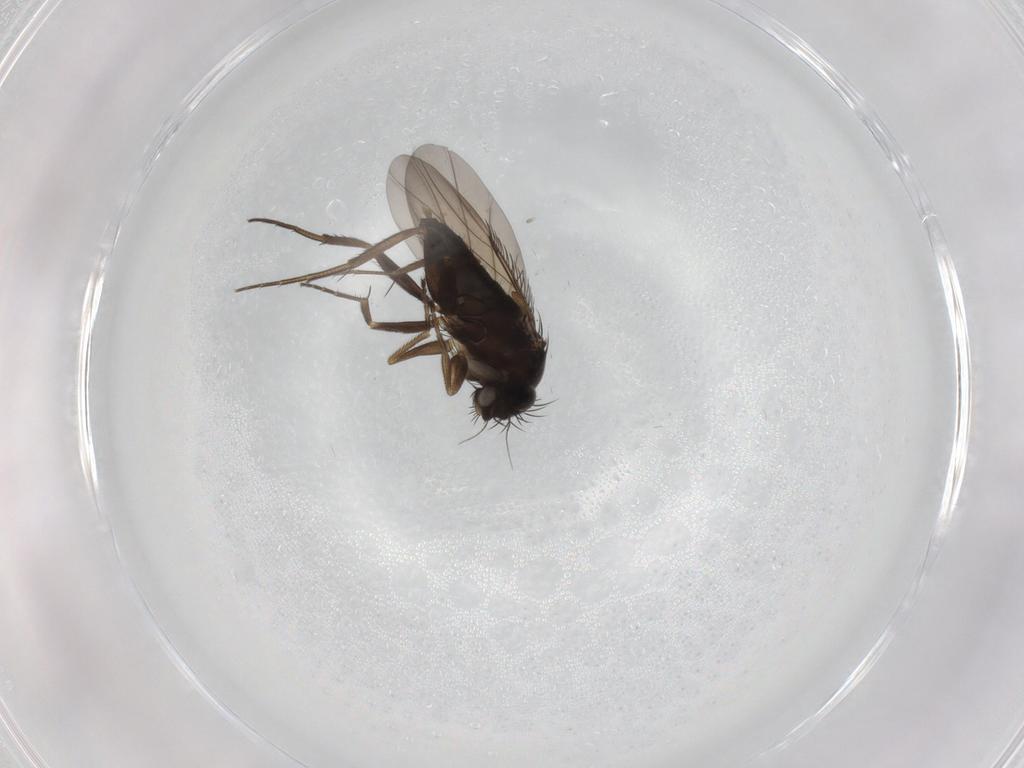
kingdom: Animalia
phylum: Arthropoda
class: Insecta
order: Diptera
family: Phoridae
